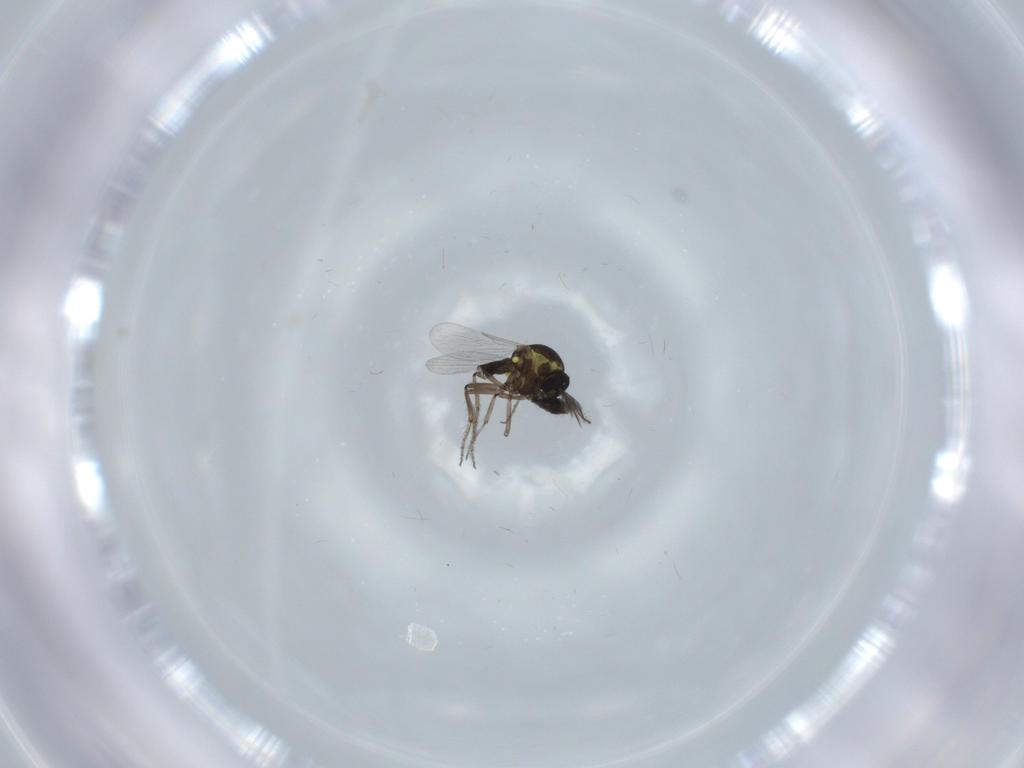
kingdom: Animalia
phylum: Arthropoda
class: Insecta
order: Diptera
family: Ceratopogonidae
